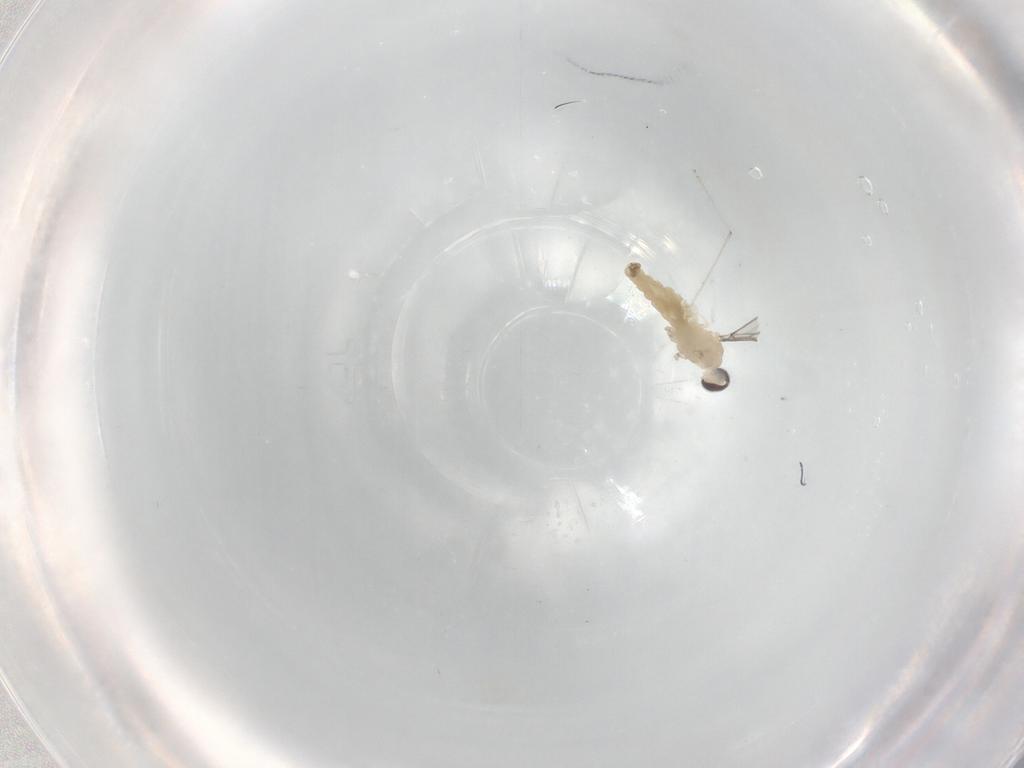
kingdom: Animalia
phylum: Arthropoda
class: Insecta
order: Diptera
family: Cecidomyiidae
